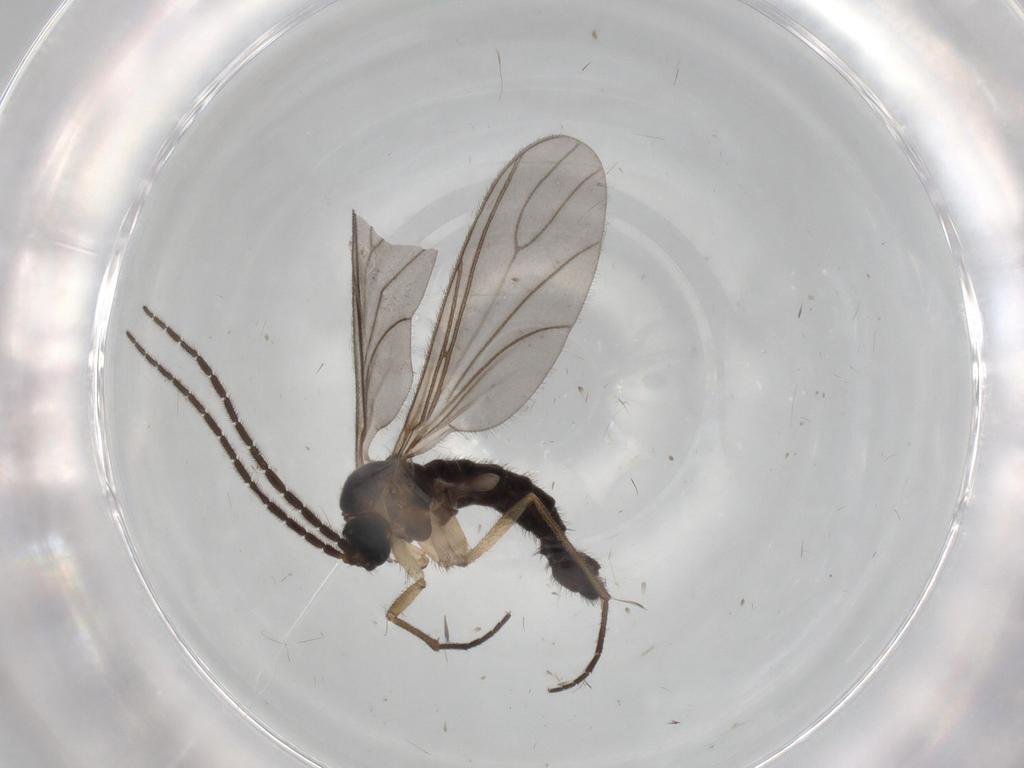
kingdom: Animalia
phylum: Arthropoda
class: Insecta
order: Diptera
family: Sciaridae
